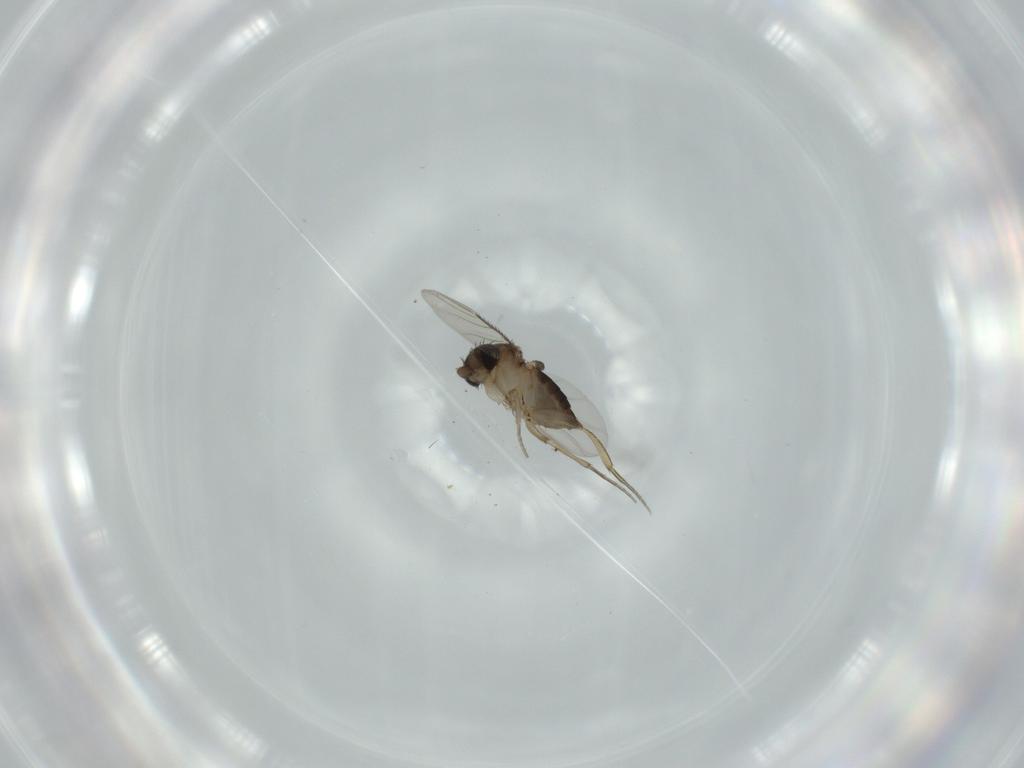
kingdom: Animalia
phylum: Arthropoda
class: Insecta
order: Diptera
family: Phoridae
